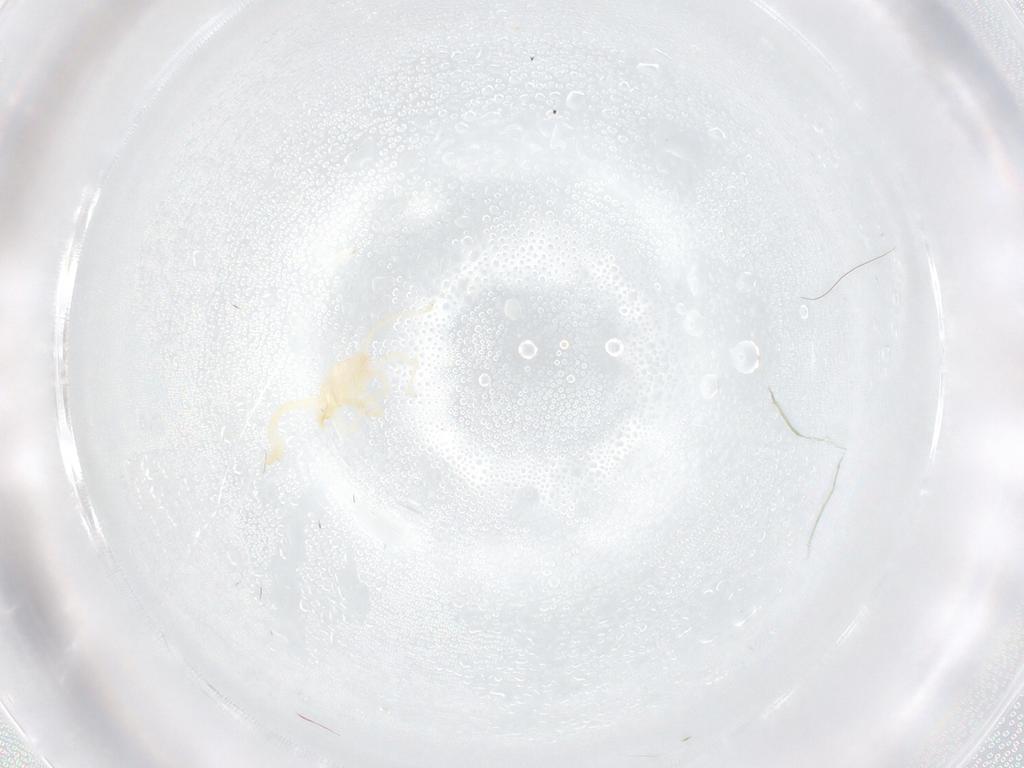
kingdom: Animalia
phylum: Arthropoda
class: Arachnida
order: Trombidiformes
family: Erythraeidae
